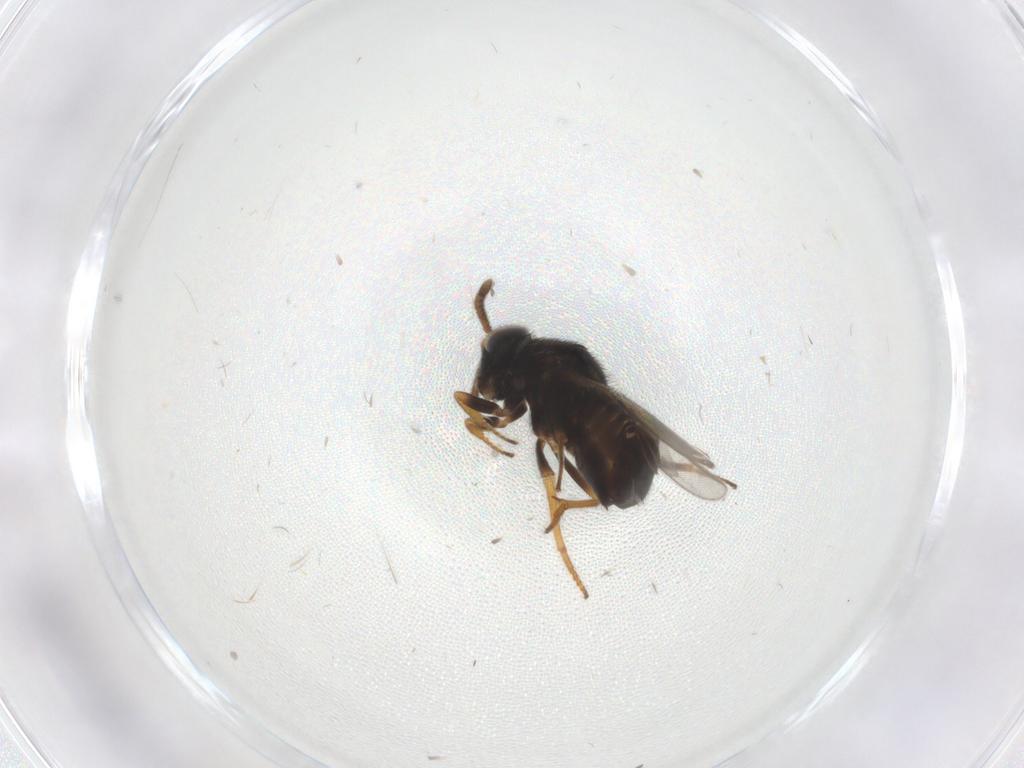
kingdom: Animalia
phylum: Arthropoda
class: Insecta
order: Hymenoptera
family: Encyrtidae
